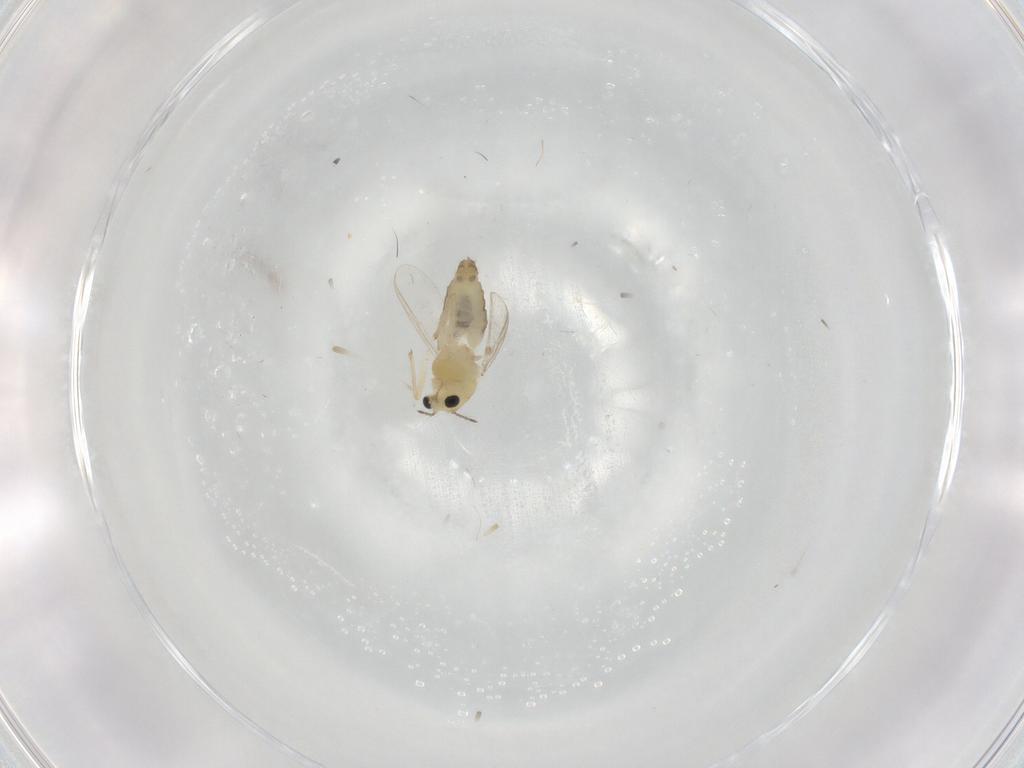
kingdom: Animalia
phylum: Arthropoda
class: Insecta
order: Diptera
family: Chironomidae
